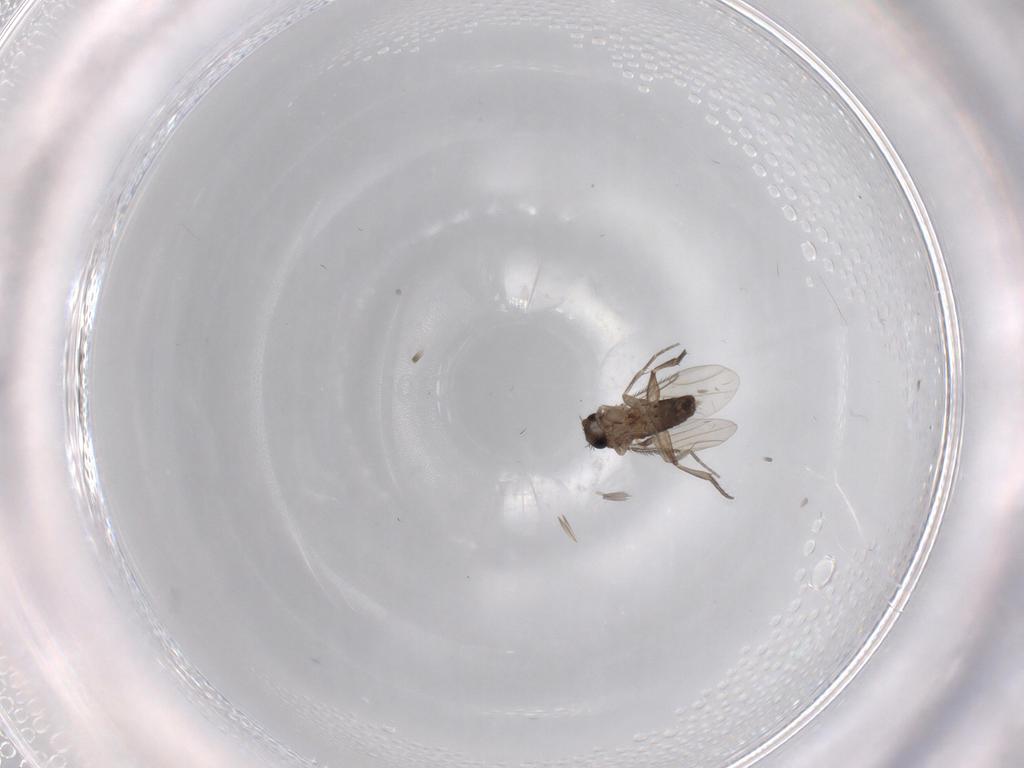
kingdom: Animalia
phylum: Arthropoda
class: Insecta
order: Diptera
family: Phoridae
